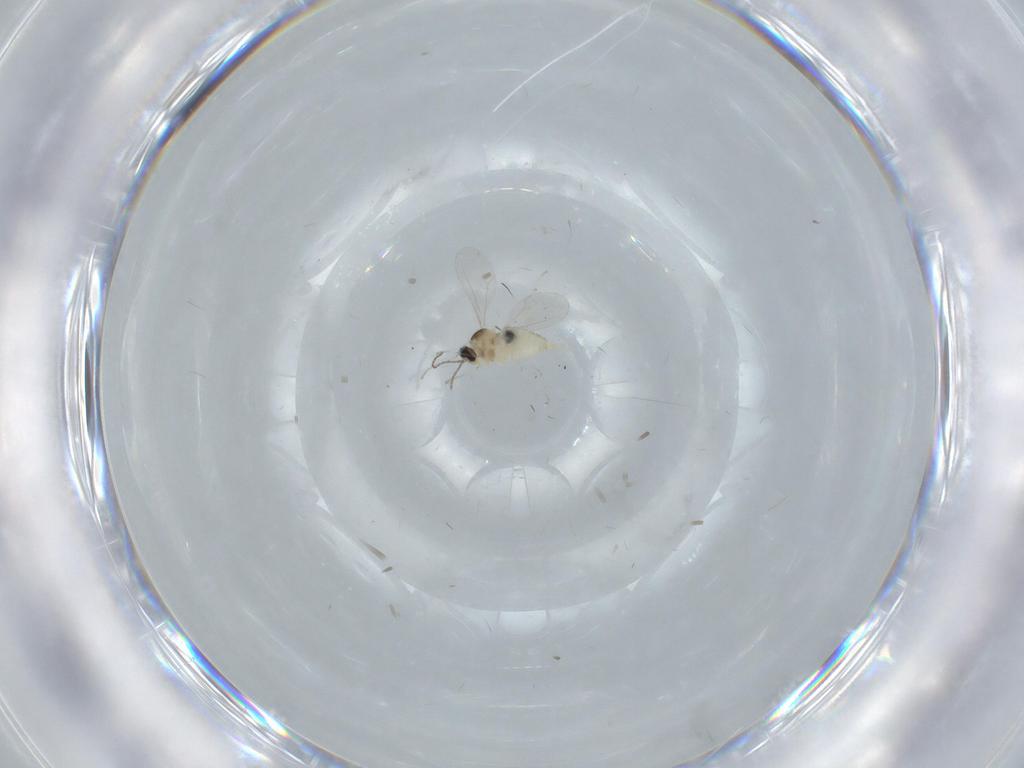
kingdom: Animalia
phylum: Arthropoda
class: Insecta
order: Diptera
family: Cecidomyiidae
